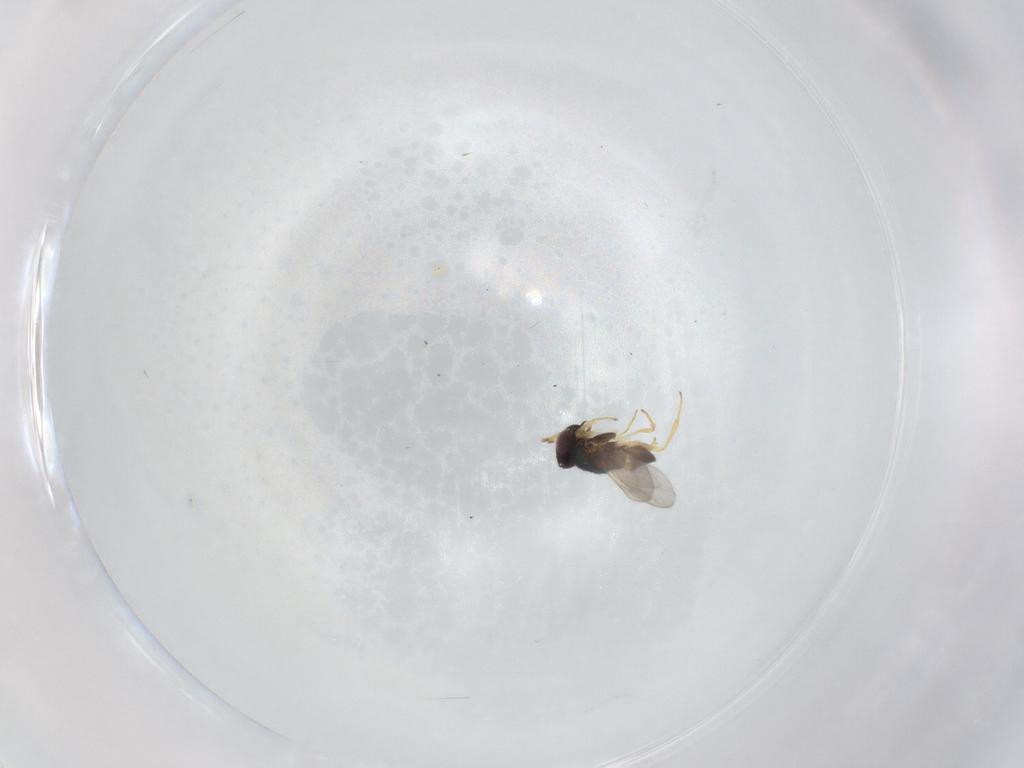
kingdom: Animalia
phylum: Arthropoda
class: Insecta
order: Hymenoptera
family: Encyrtidae
